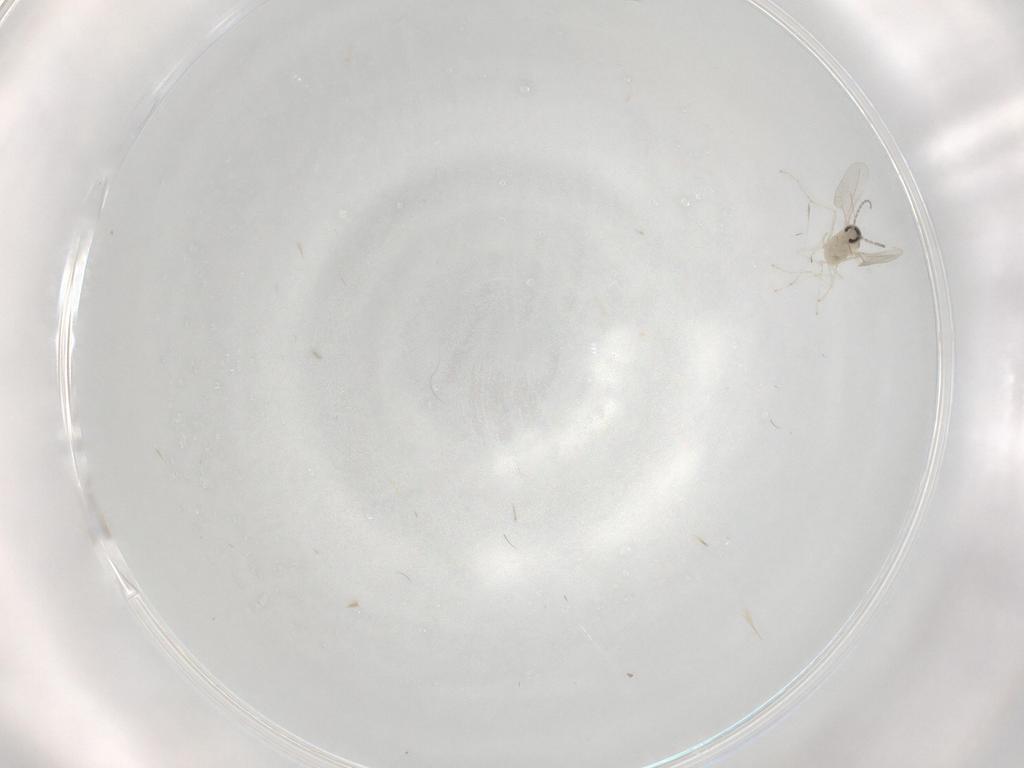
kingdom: Animalia
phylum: Arthropoda
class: Insecta
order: Diptera
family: Cecidomyiidae
